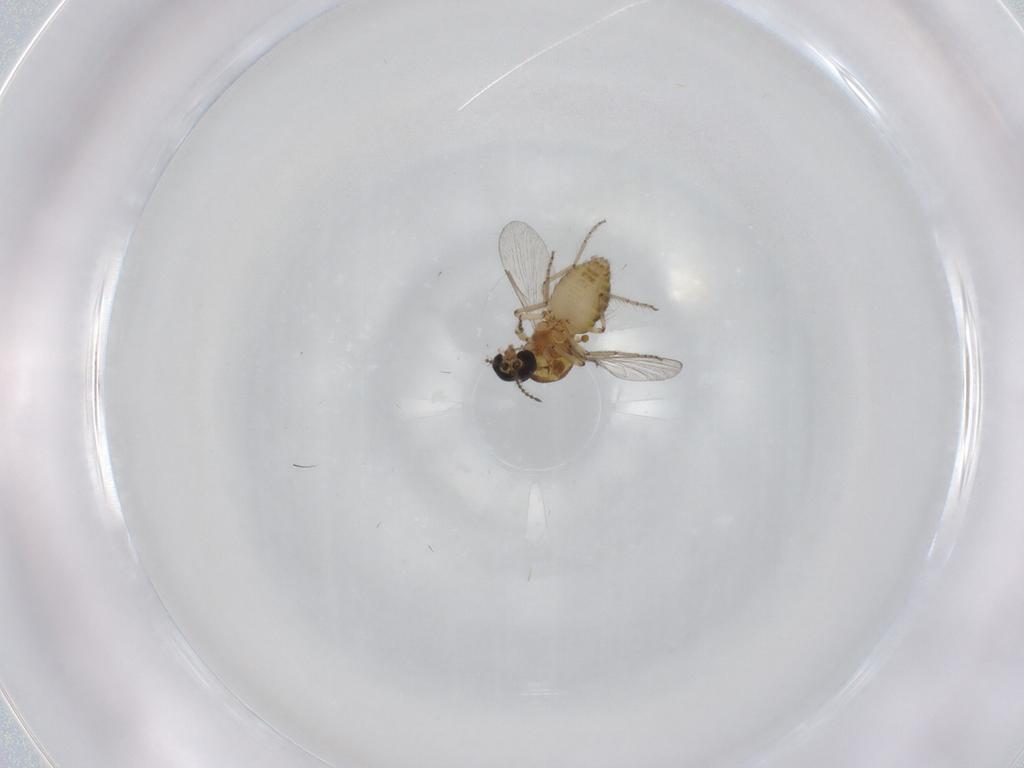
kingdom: Animalia
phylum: Arthropoda
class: Insecta
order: Diptera
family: Ceratopogonidae
